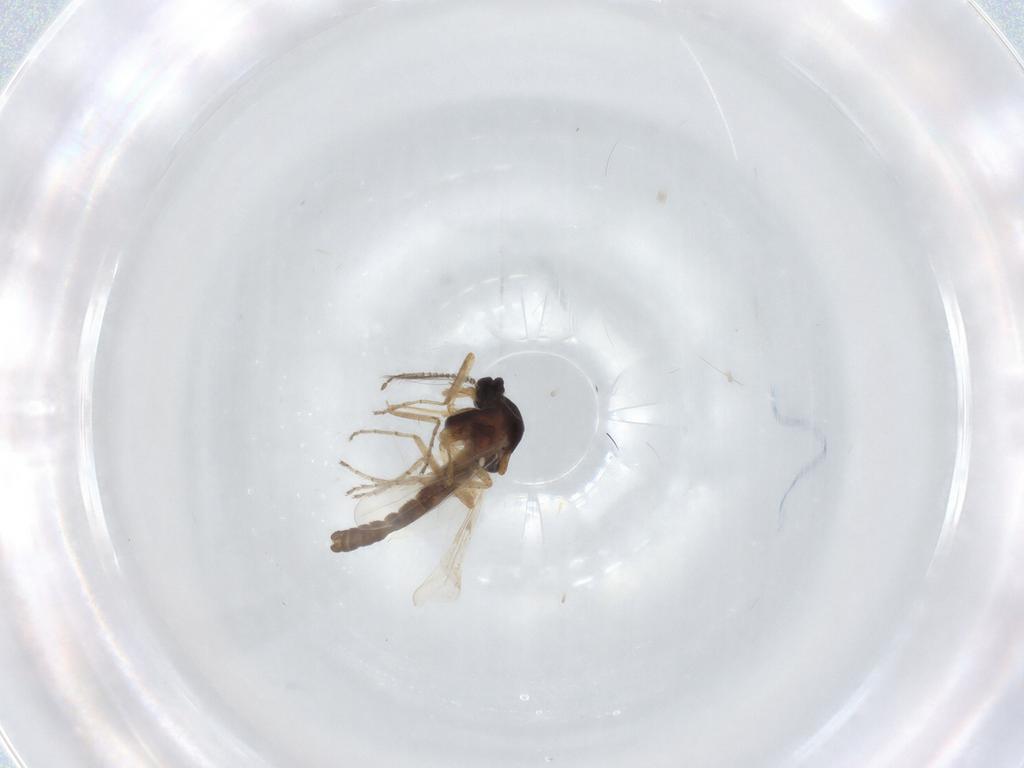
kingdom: Animalia
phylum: Arthropoda
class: Insecta
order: Diptera
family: Ceratopogonidae
